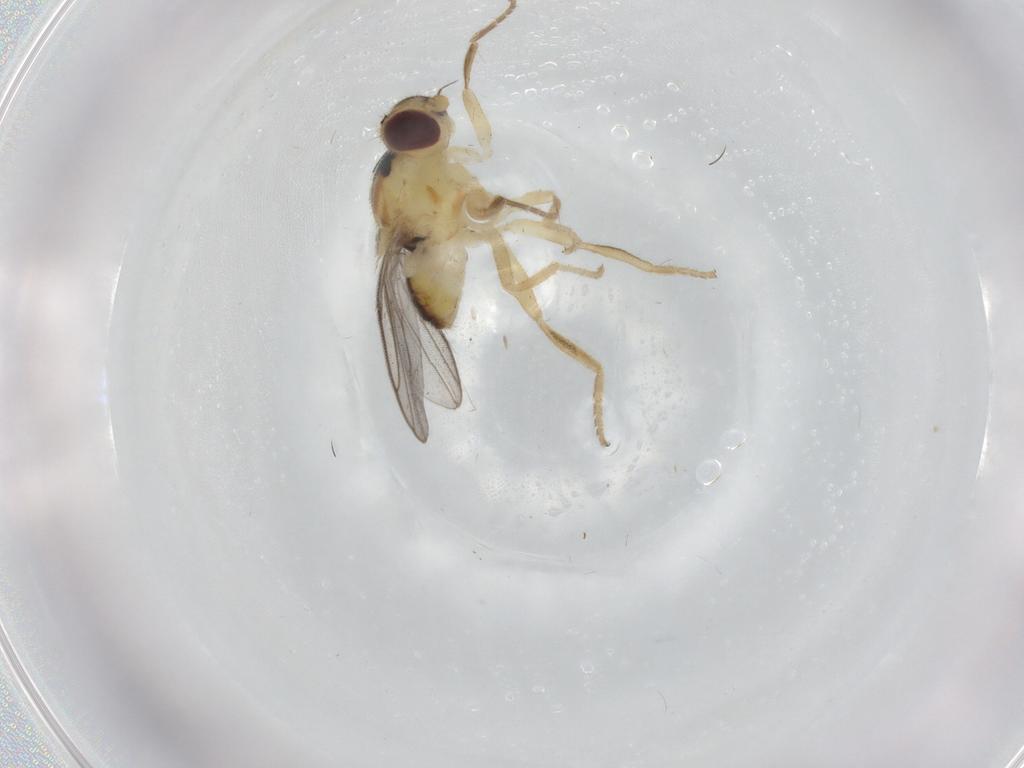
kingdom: Animalia
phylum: Arthropoda
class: Insecta
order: Diptera
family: Chloropidae
